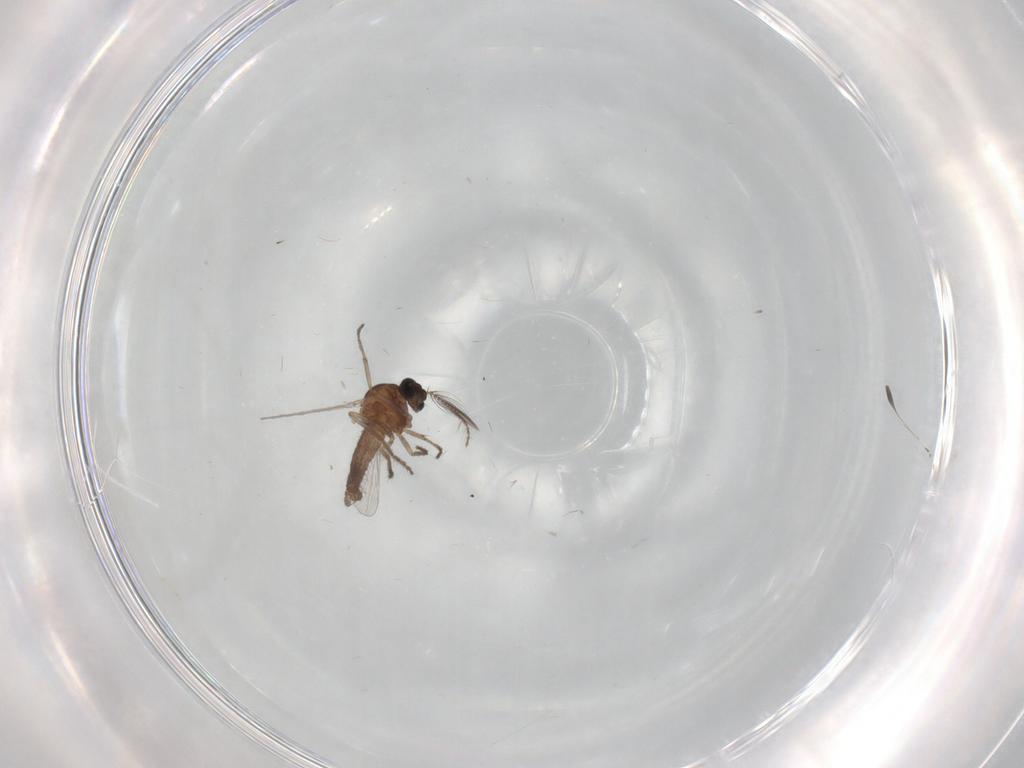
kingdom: Animalia
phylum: Arthropoda
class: Insecta
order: Diptera
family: Ceratopogonidae
